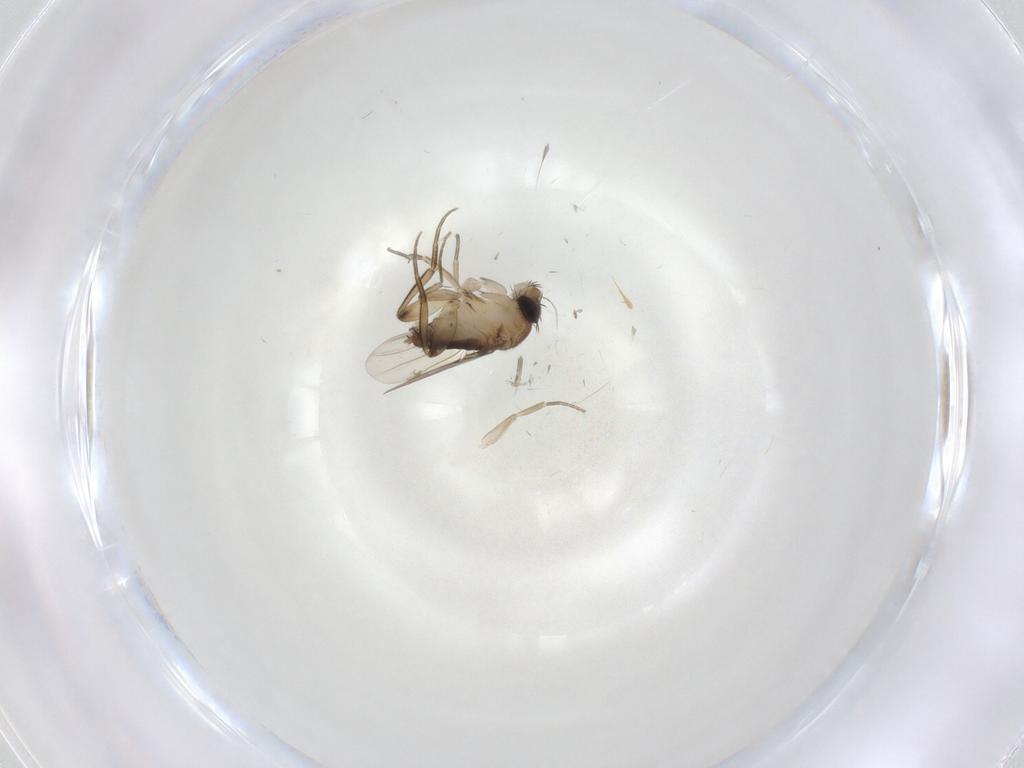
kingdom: Animalia
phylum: Arthropoda
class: Insecta
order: Diptera
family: Phoridae
